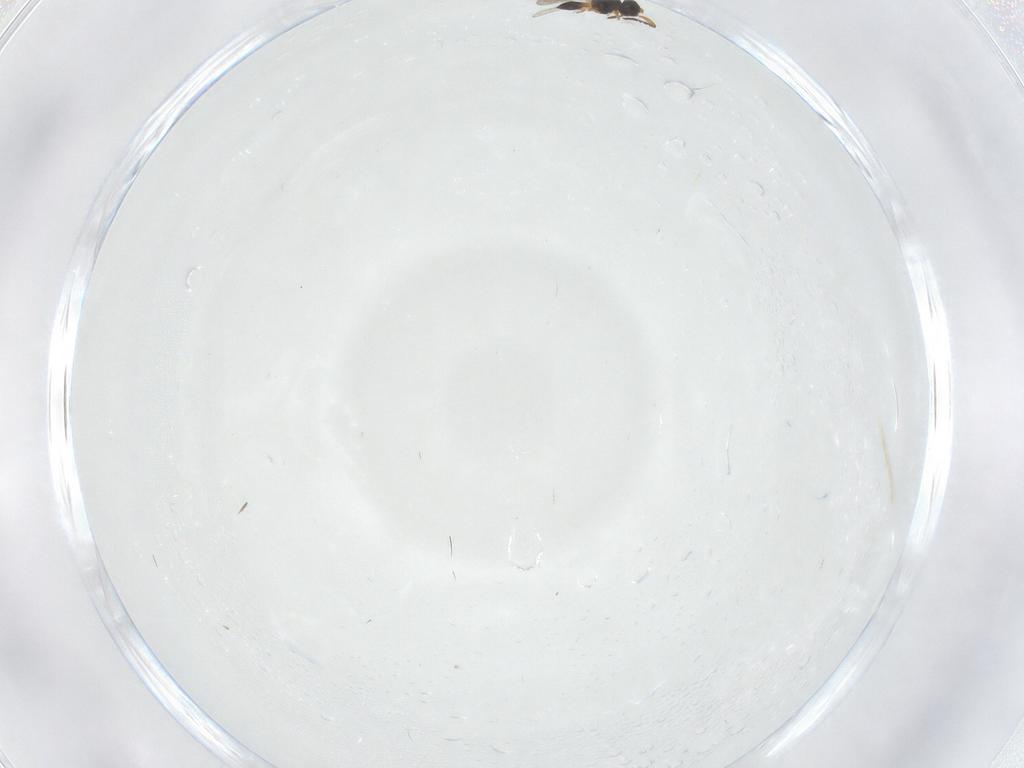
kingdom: Animalia
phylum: Arthropoda
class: Insecta
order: Hymenoptera
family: Platygastridae
